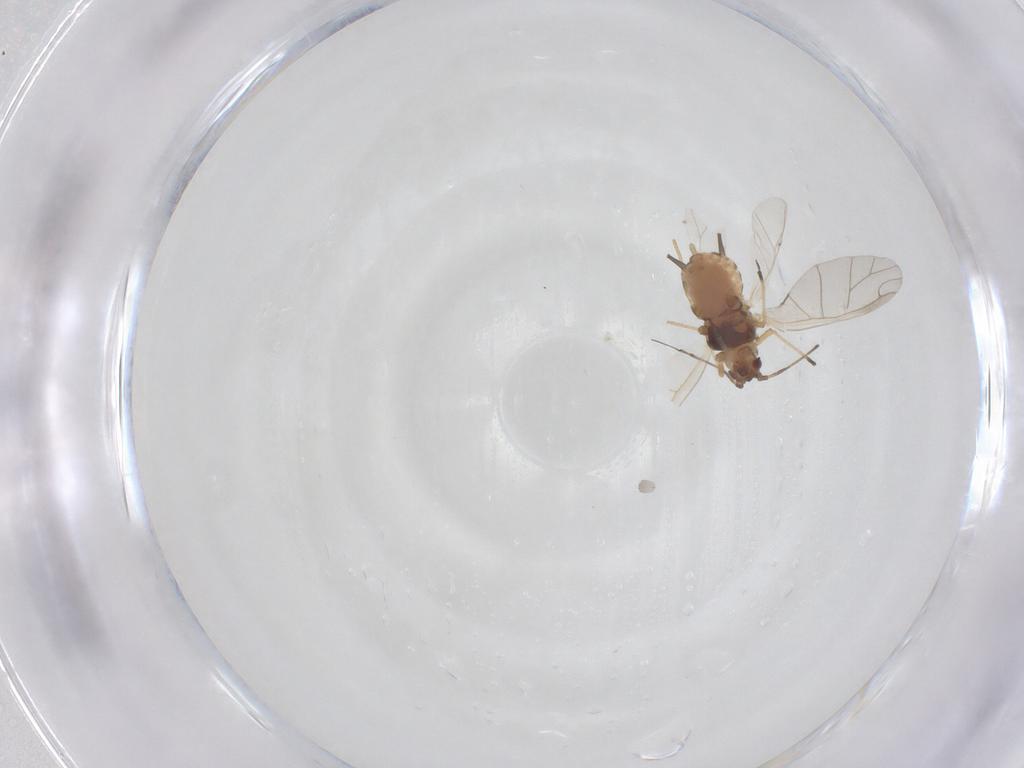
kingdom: Animalia
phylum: Arthropoda
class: Insecta
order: Hemiptera
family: Aphididae
